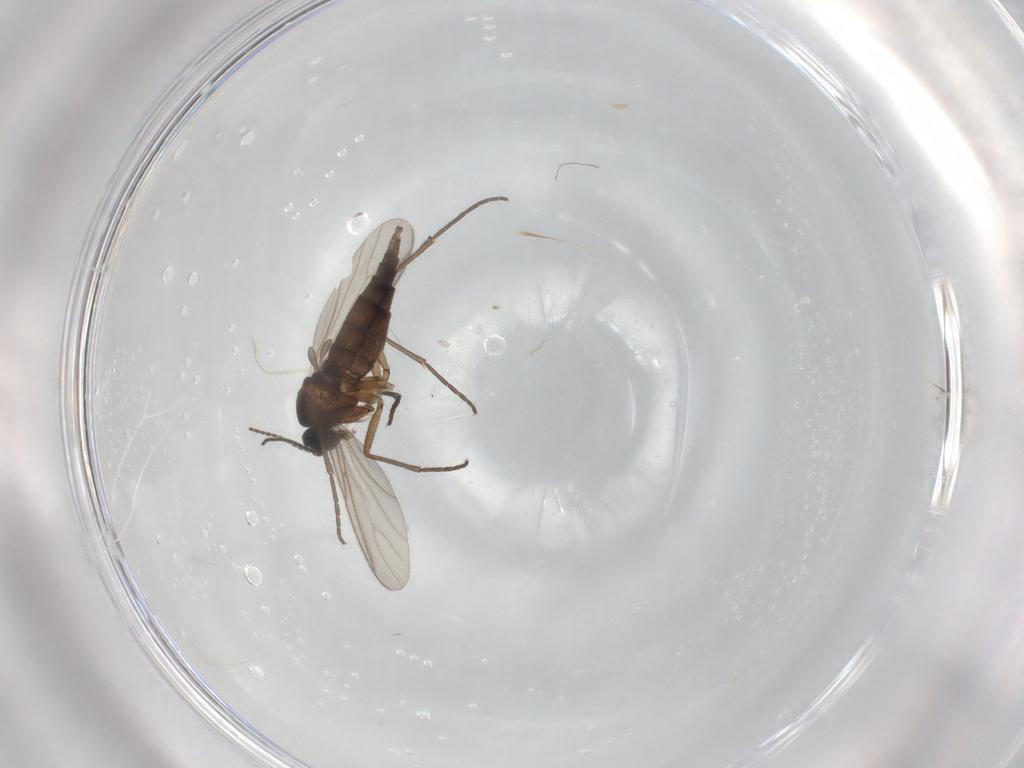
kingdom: Animalia
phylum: Arthropoda
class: Insecta
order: Diptera
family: Sciaridae
